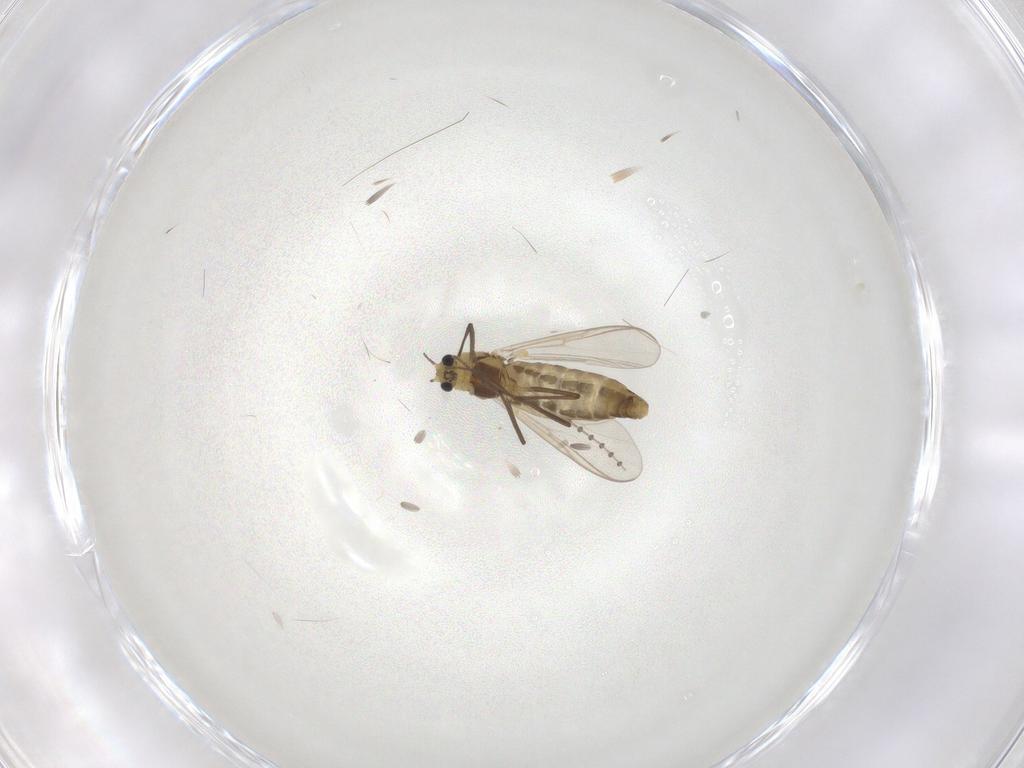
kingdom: Animalia
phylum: Arthropoda
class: Insecta
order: Diptera
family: Chironomidae
